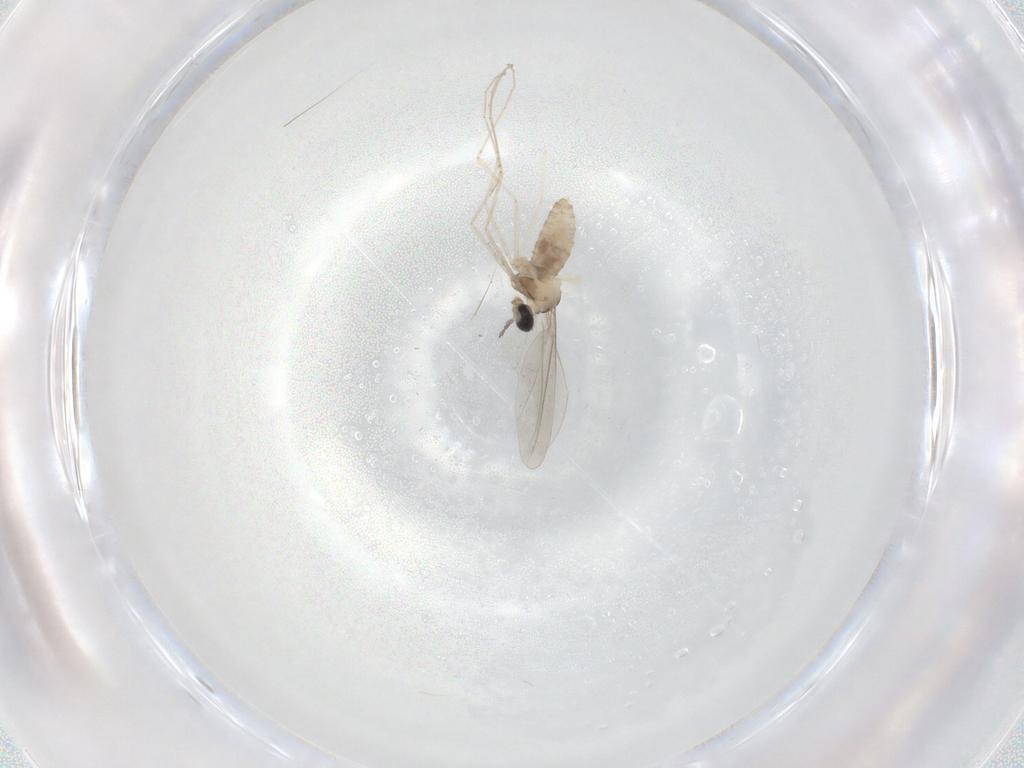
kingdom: Animalia
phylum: Arthropoda
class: Insecta
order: Diptera
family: Cecidomyiidae
